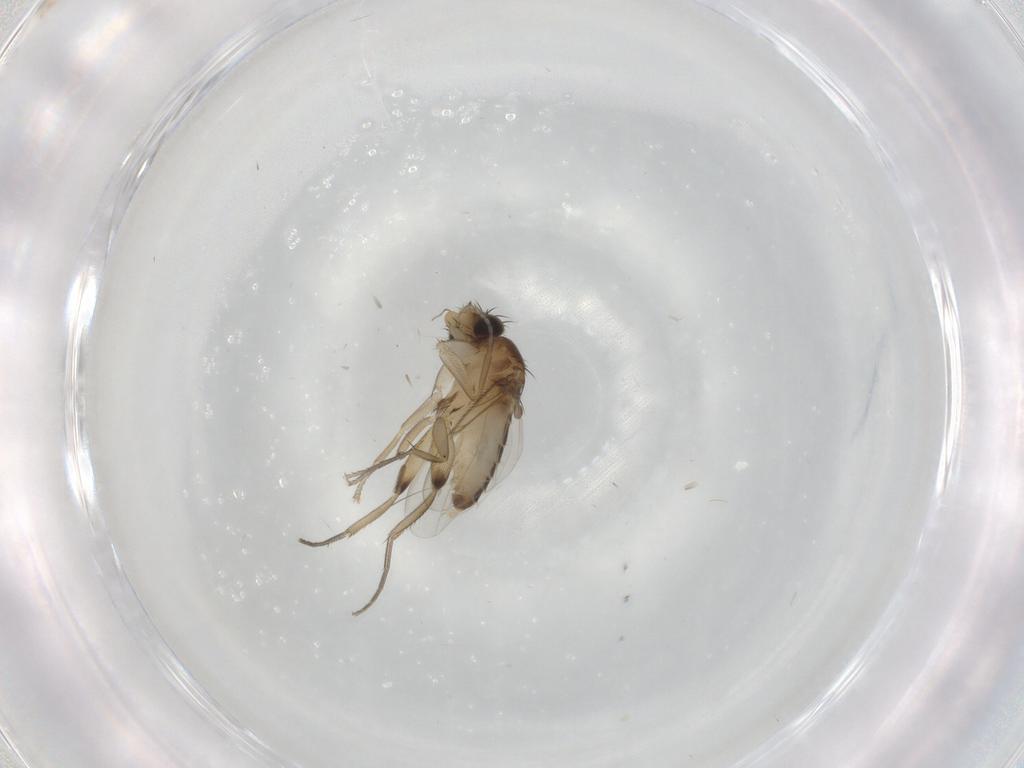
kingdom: Animalia
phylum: Arthropoda
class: Insecta
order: Diptera
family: Phoridae
